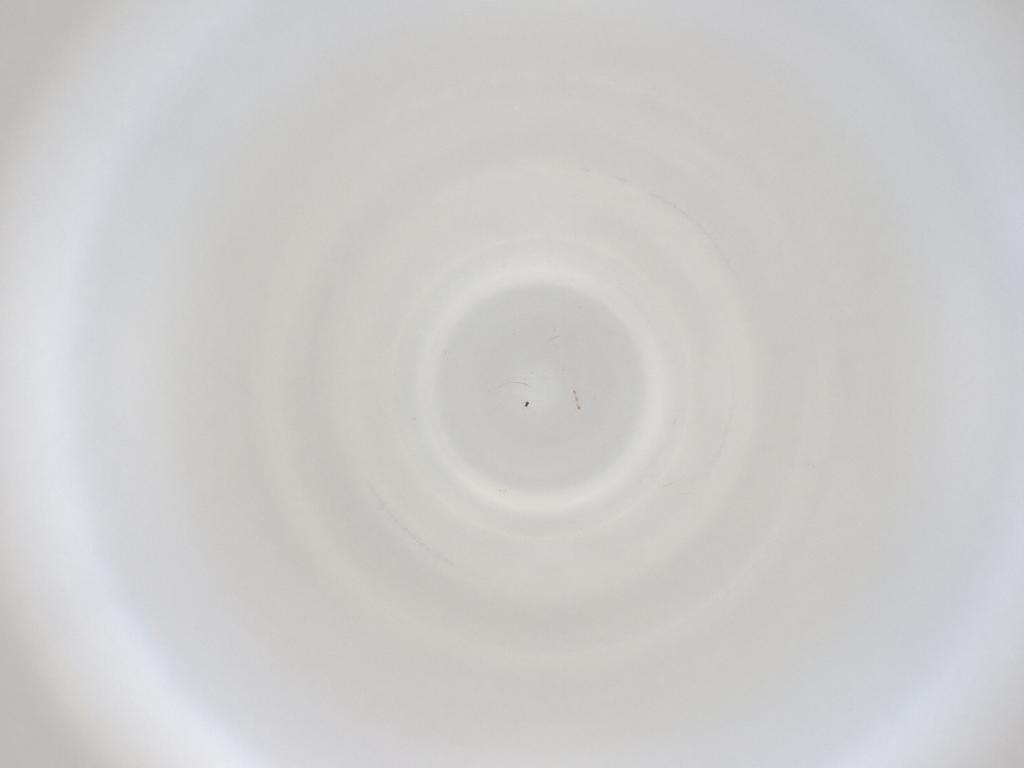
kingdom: Animalia
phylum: Arthropoda
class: Insecta
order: Diptera
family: Cecidomyiidae
